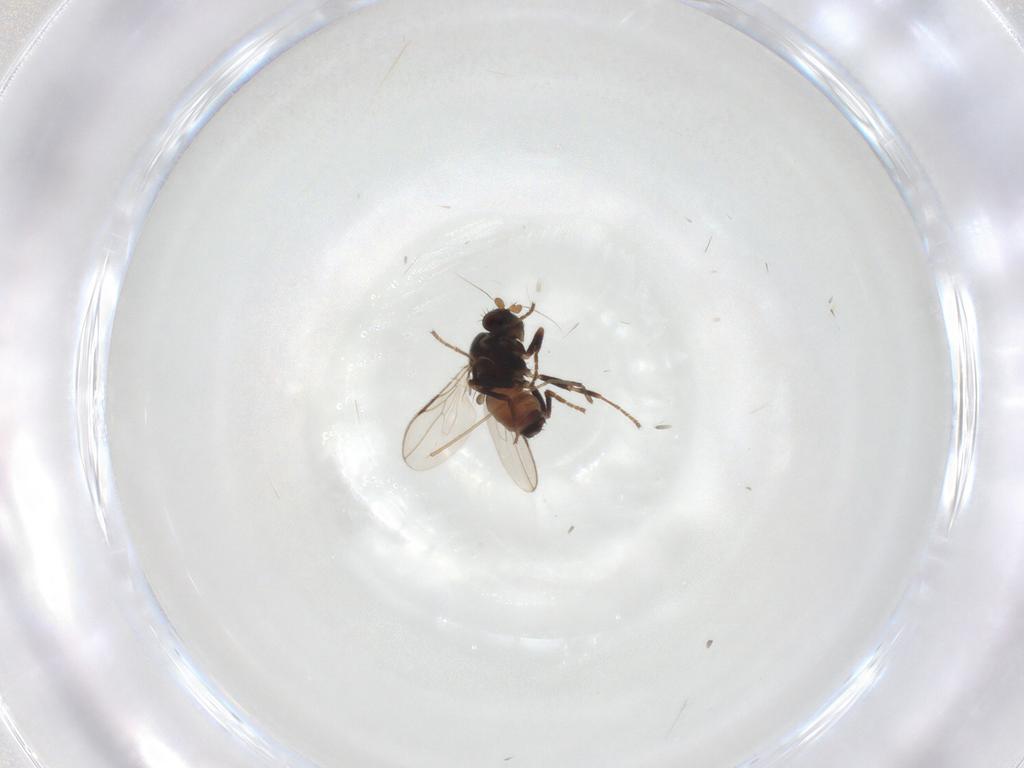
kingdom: Animalia
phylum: Arthropoda
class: Insecta
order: Diptera
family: Sphaeroceridae
